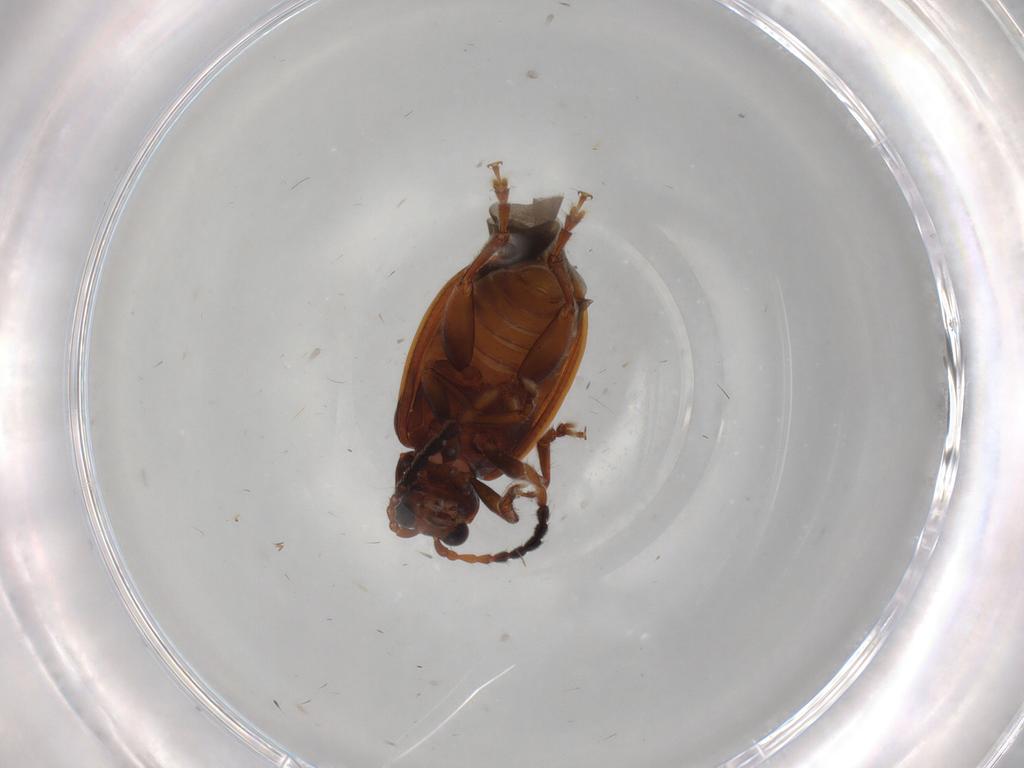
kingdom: Animalia
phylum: Arthropoda
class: Insecta
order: Coleoptera
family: Chrysomelidae
